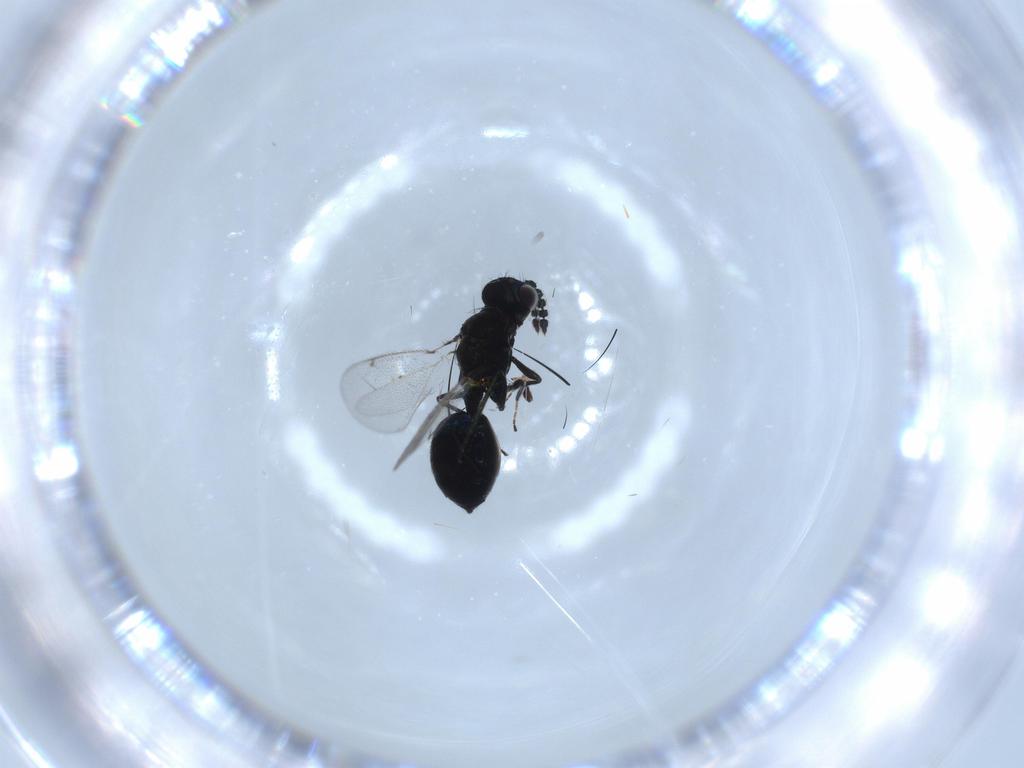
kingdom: Animalia
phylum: Arthropoda
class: Insecta
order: Hymenoptera
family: Eulophidae
